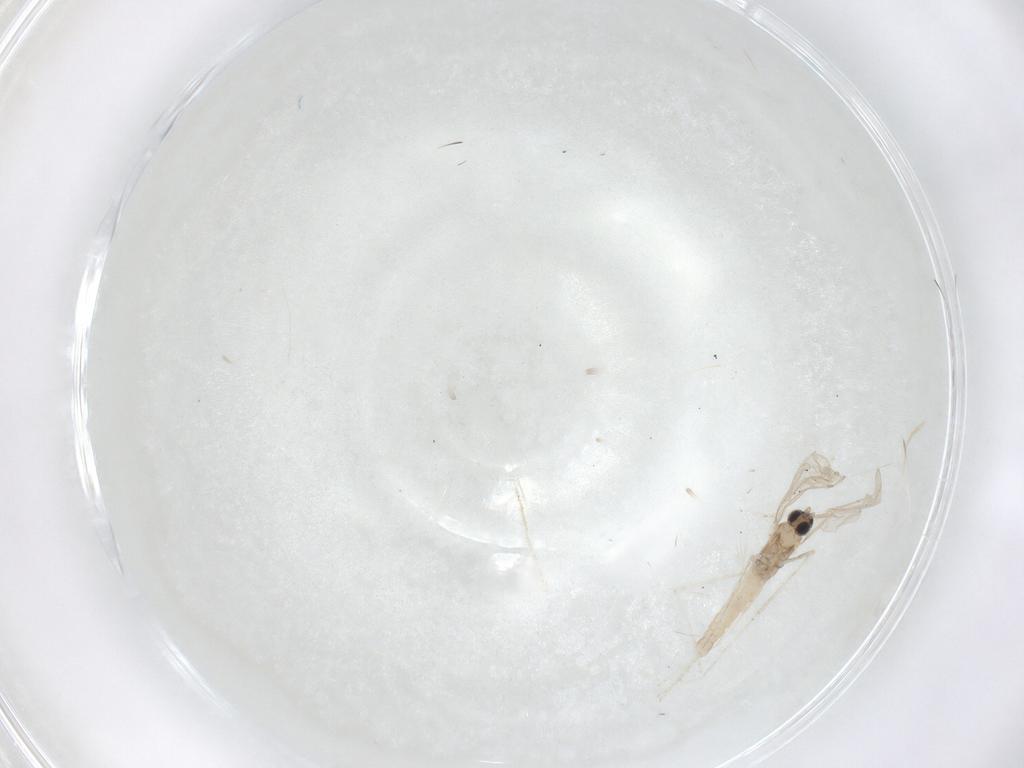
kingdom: Animalia
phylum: Arthropoda
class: Insecta
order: Diptera
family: Cecidomyiidae
